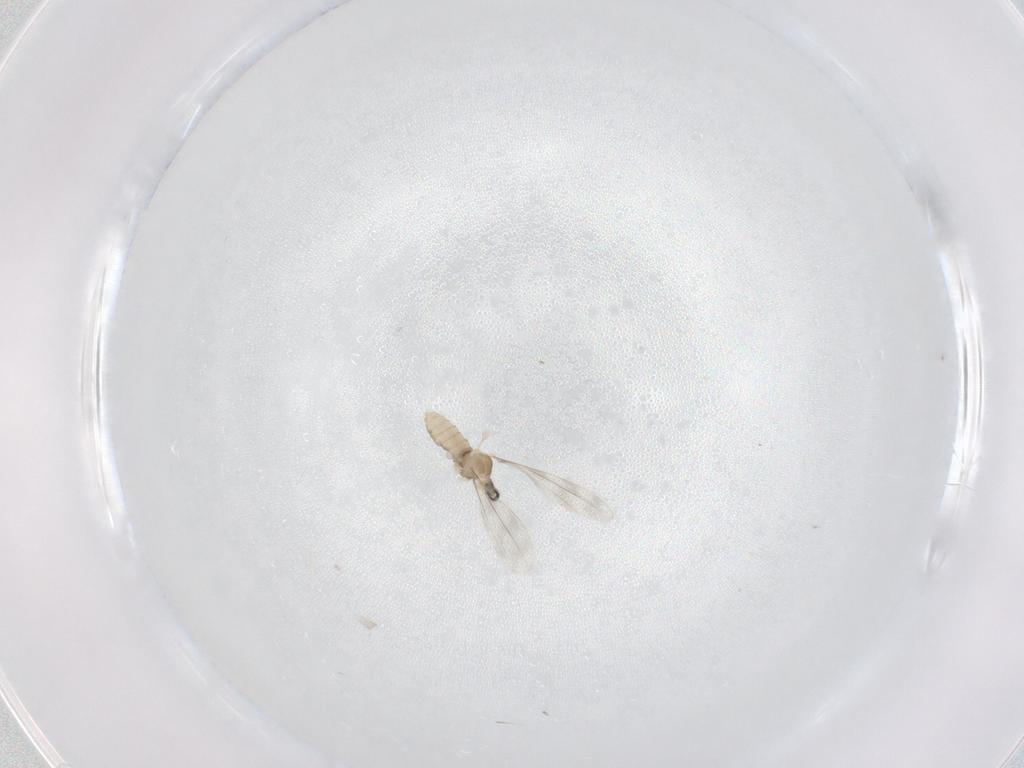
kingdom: Animalia
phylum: Arthropoda
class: Insecta
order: Diptera
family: Cecidomyiidae
